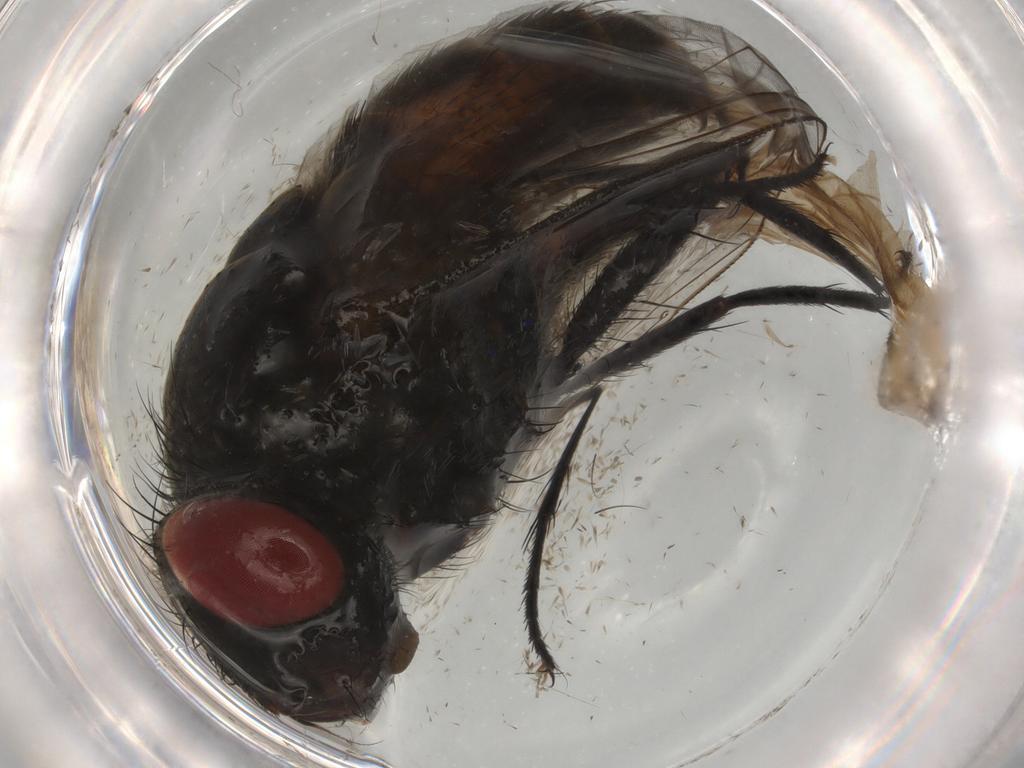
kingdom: Animalia
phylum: Arthropoda
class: Insecta
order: Diptera
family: Sarcophagidae
